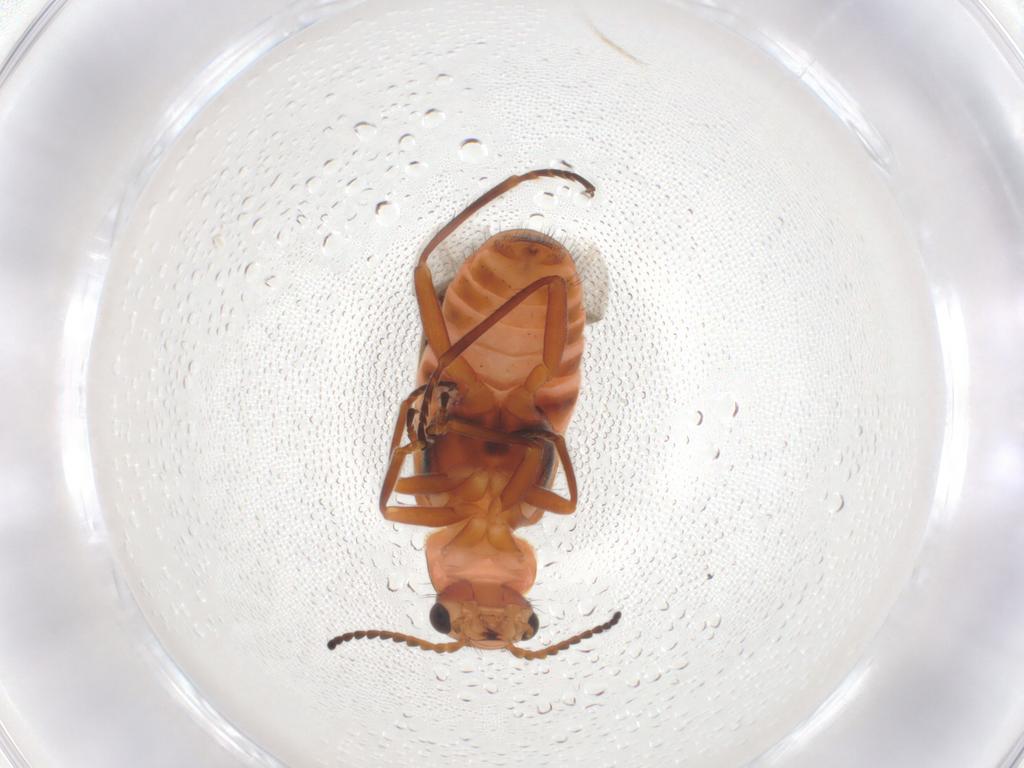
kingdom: Animalia
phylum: Arthropoda
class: Insecta
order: Coleoptera
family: Melyridae
